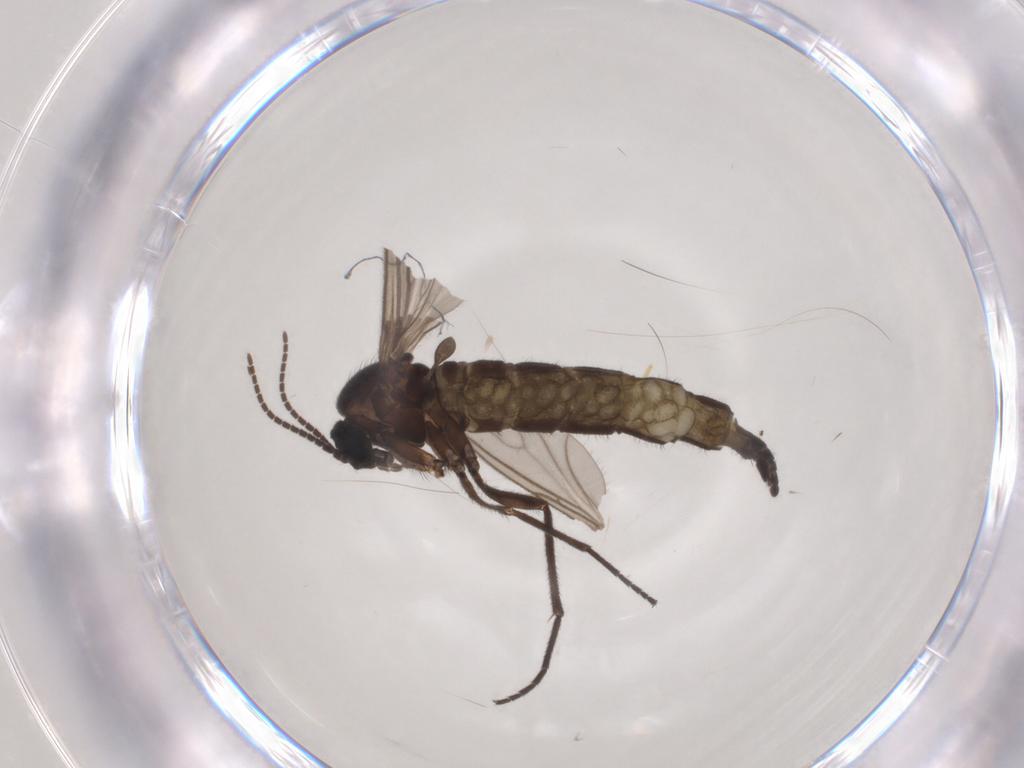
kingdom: Animalia
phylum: Arthropoda
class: Insecta
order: Diptera
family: Sciaridae
